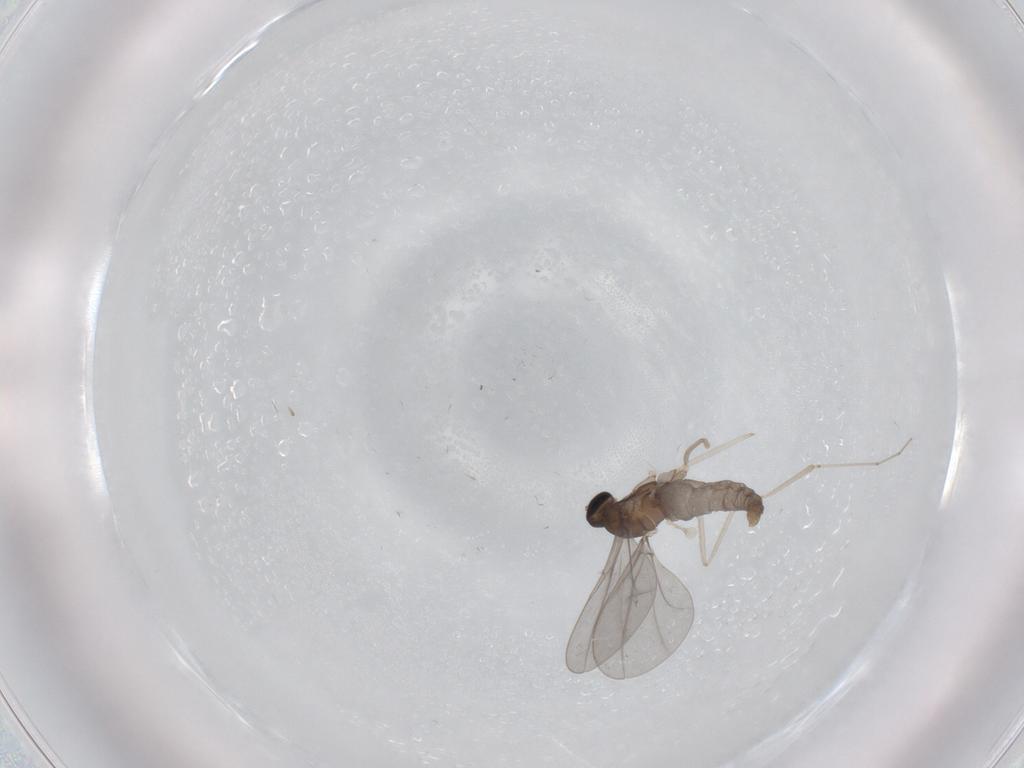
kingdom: Animalia
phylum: Arthropoda
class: Insecta
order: Diptera
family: Cecidomyiidae
